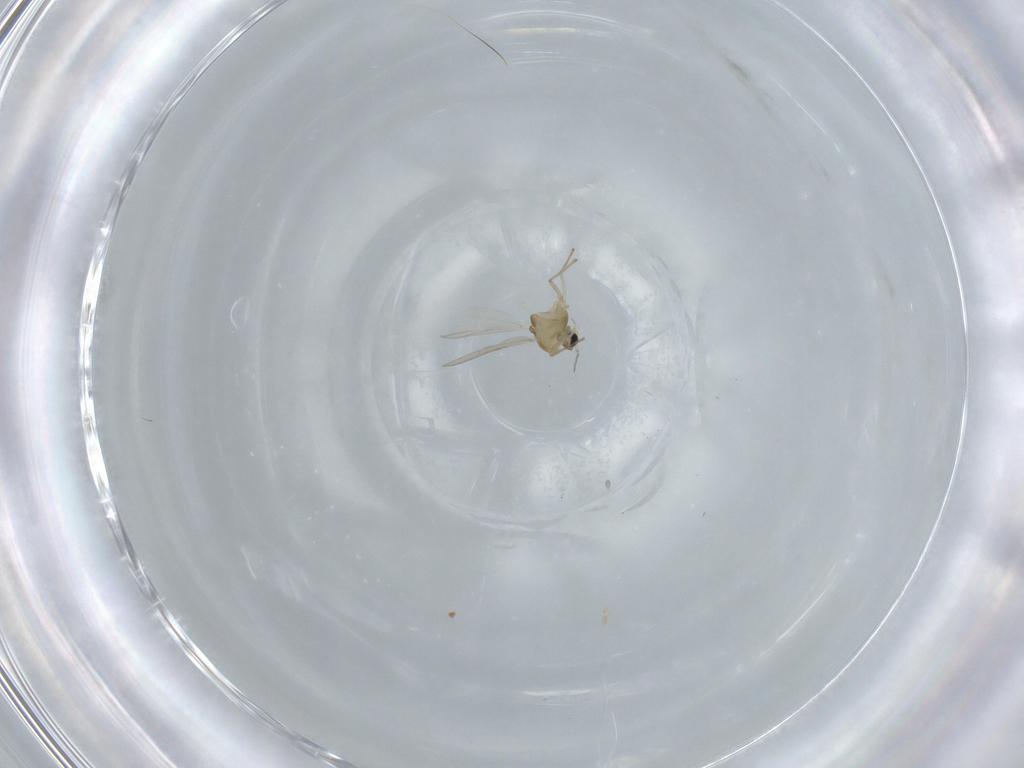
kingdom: Animalia
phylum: Arthropoda
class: Insecta
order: Diptera
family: Chironomidae
